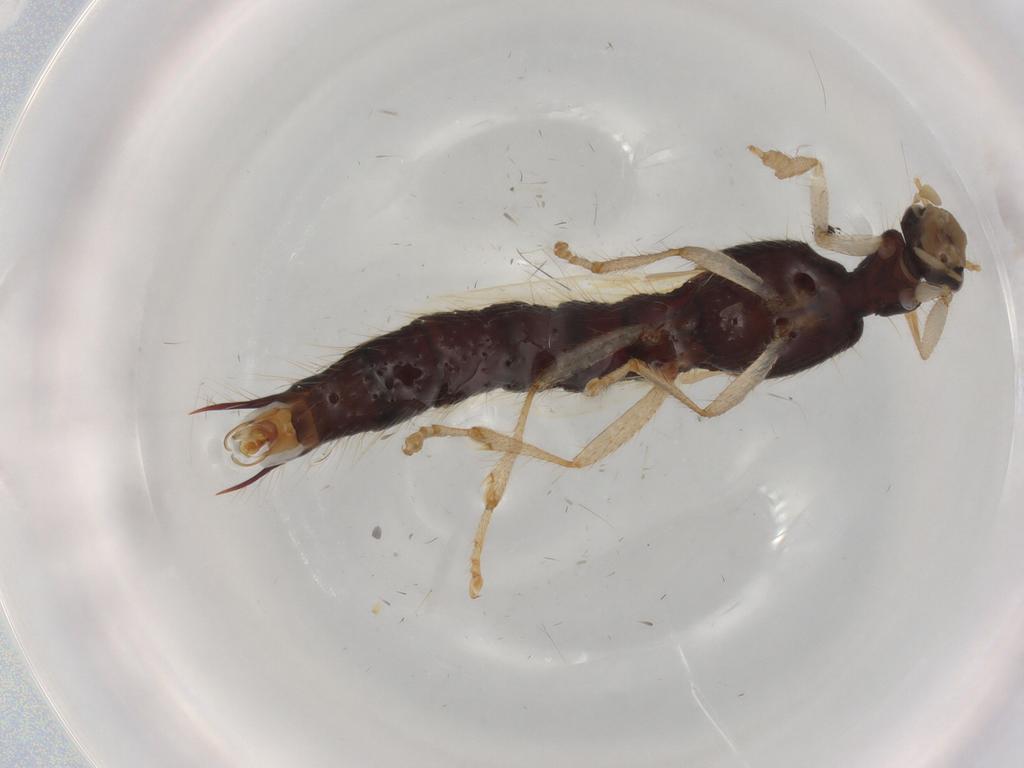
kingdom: Animalia
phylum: Arthropoda
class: Insecta
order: Coleoptera
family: Staphylinidae
